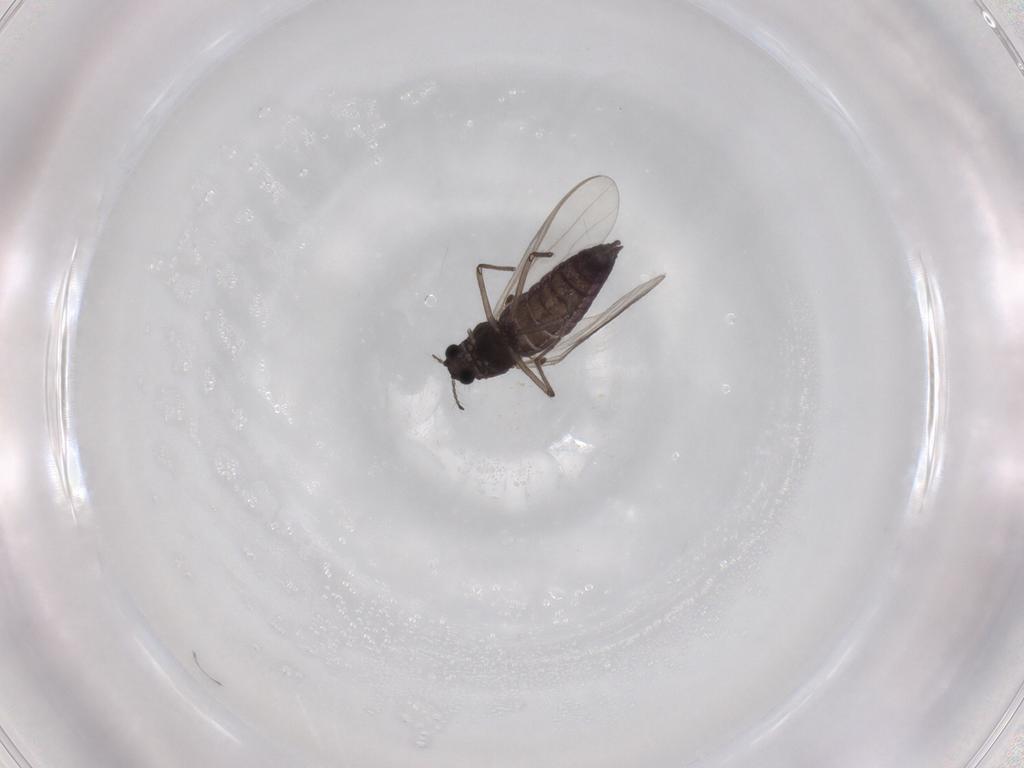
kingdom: Animalia
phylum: Arthropoda
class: Insecta
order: Diptera
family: Chironomidae
